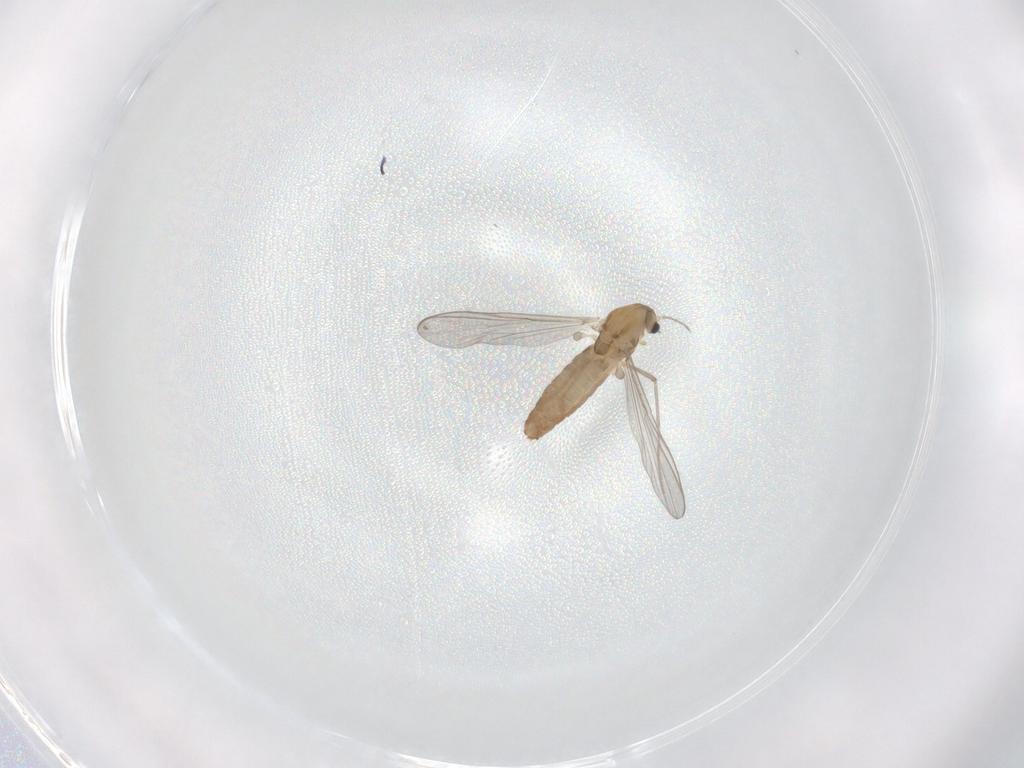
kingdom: Animalia
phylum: Arthropoda
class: Insecta
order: Diptera
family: Mycetophilidae
